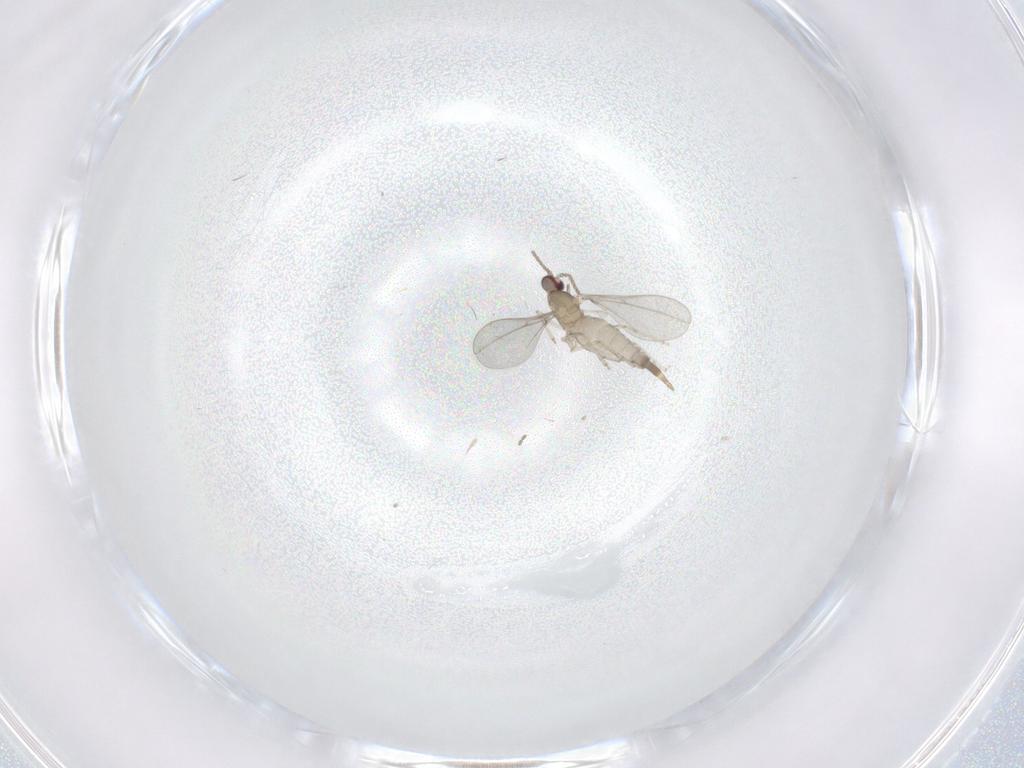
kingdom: Animalia
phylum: Arthropoda
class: Insecta
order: Diptera
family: Cecidomyiidae
